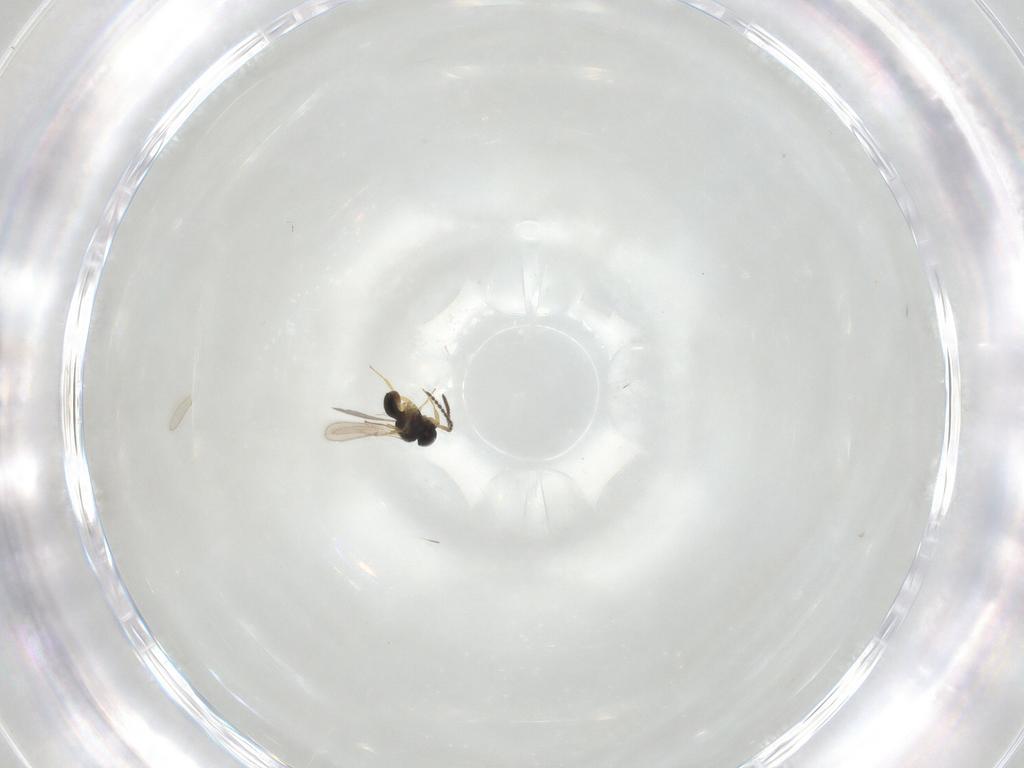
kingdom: Animalia
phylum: Arthropoda
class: Insecta
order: Hymenoptera
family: Scelionidae
